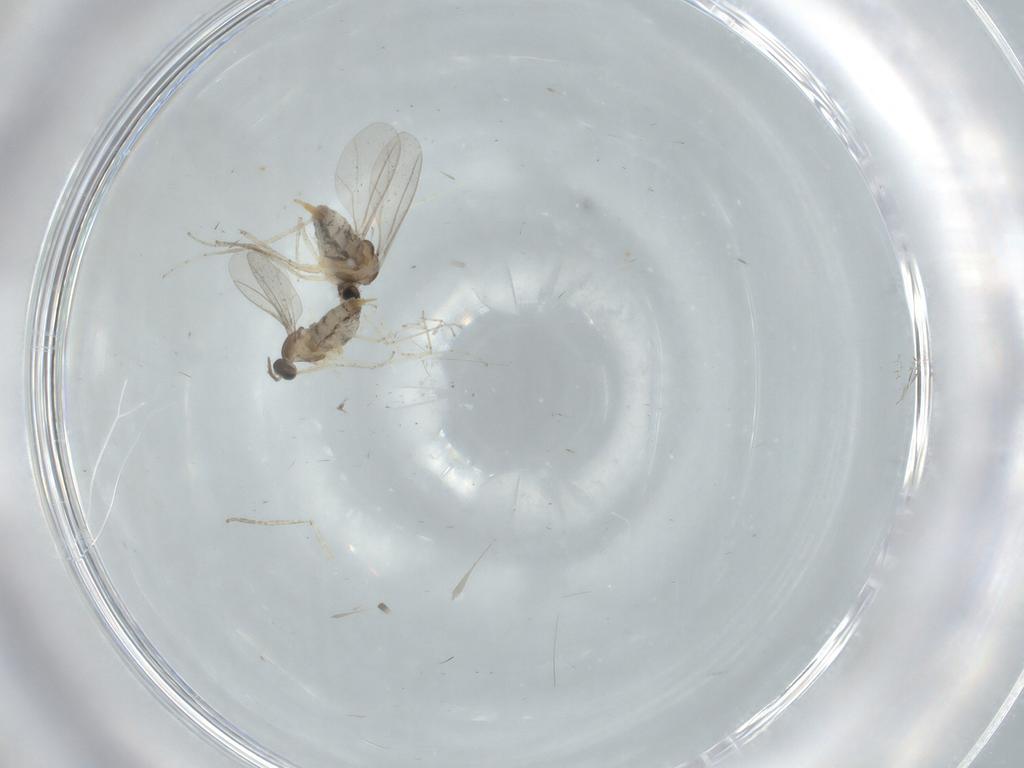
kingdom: Animalia
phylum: Arthropoda
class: Insecta
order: Diptera
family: Cecidomyiidae
